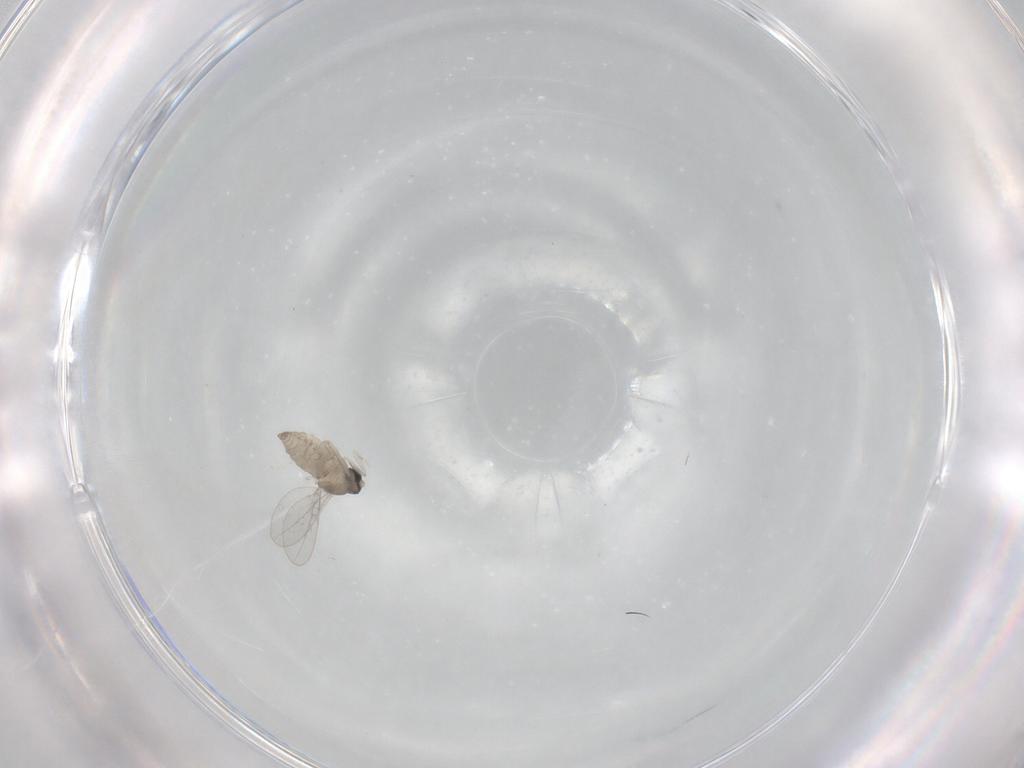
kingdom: Animalia
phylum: Arthropoda
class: Insecta
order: Diptera
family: Cecidomyiidae
